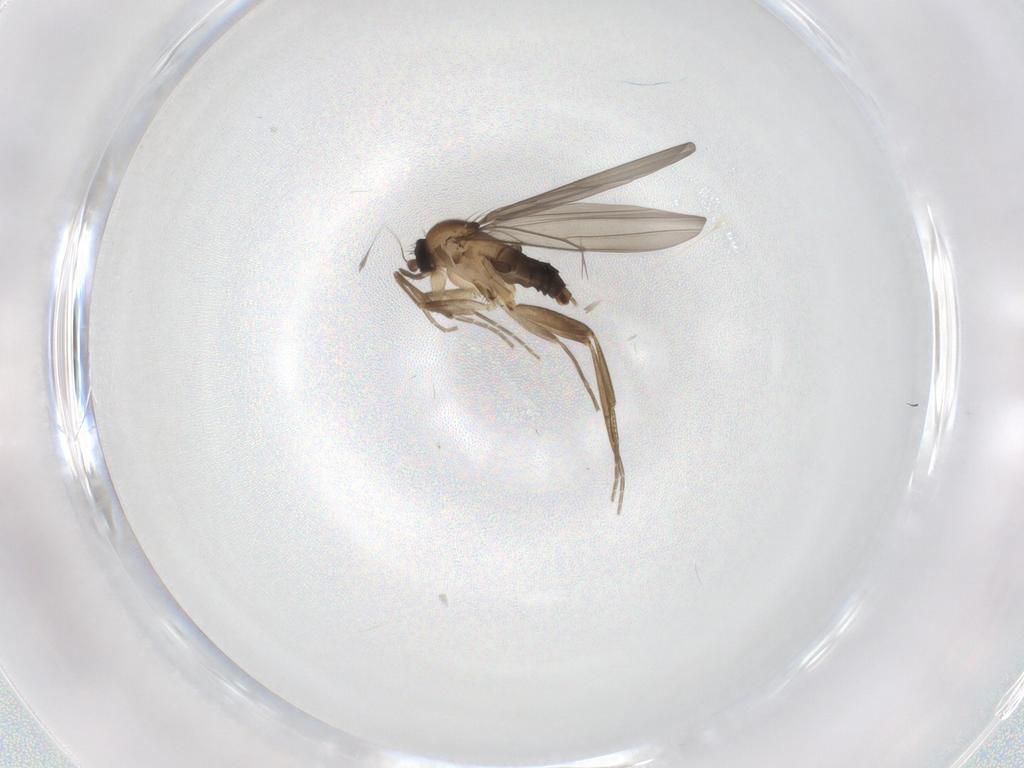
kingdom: Animalia
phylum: Arthropoda
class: Insecta
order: Diptera
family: Phoridae
